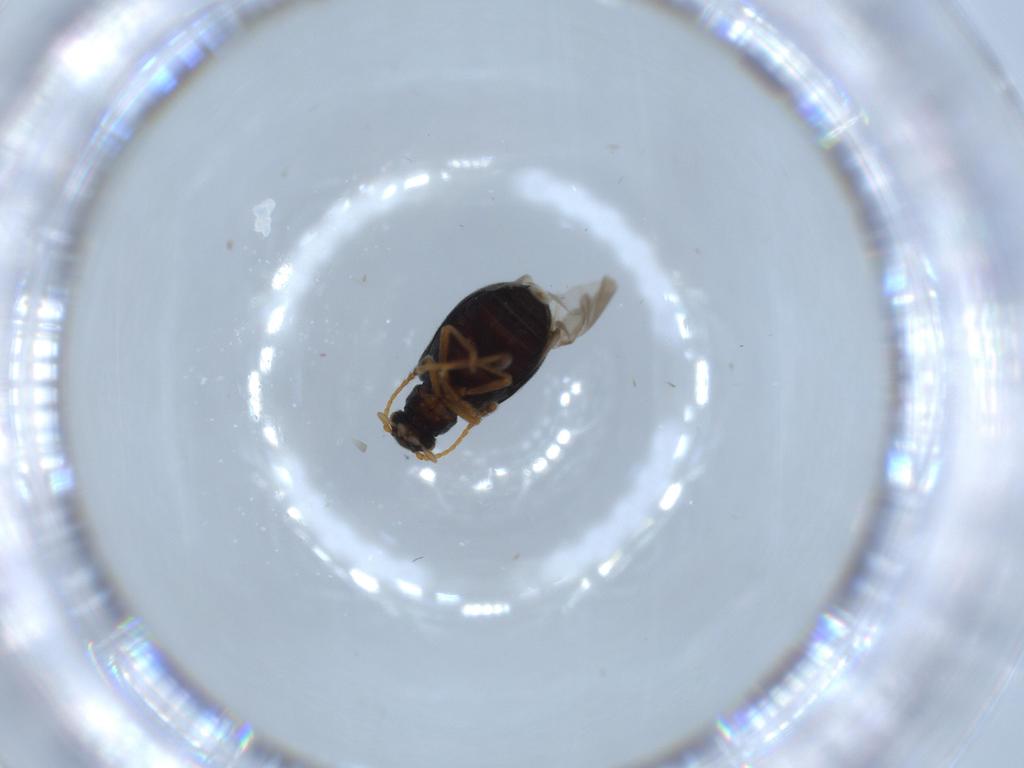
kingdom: Animalia
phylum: Arthropoda
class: Insecta
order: Coleoptera
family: Aderidae
